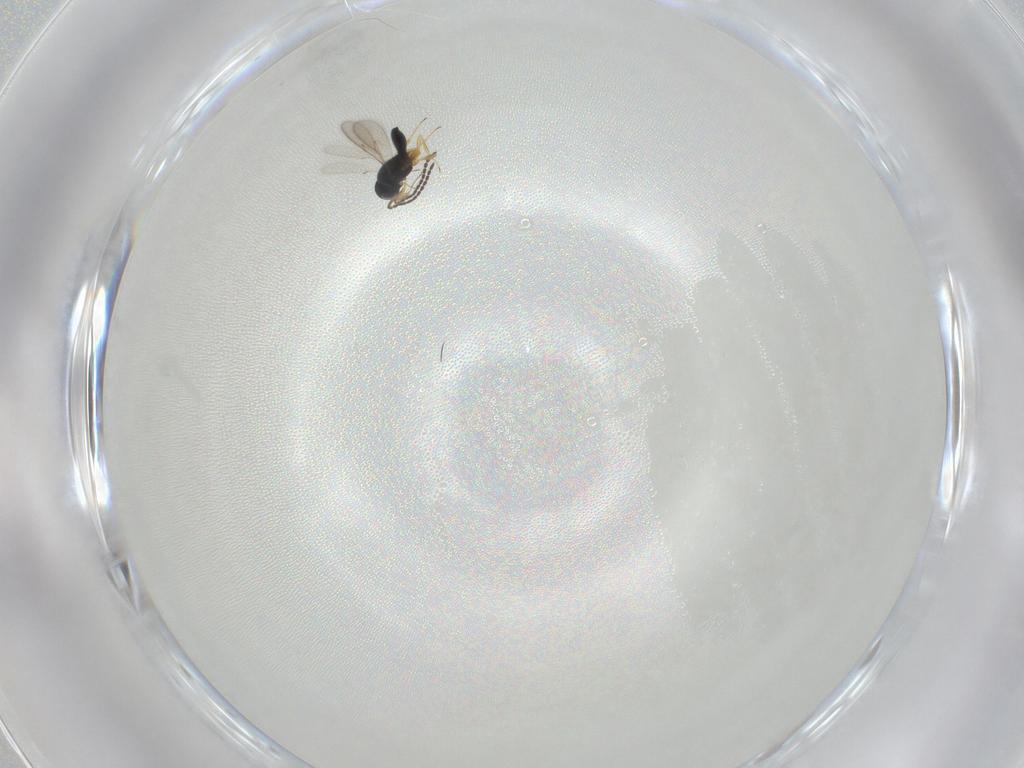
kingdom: Animalia
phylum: Arthropoda
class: Insecta
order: Hymenoptera
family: Scelionidae
